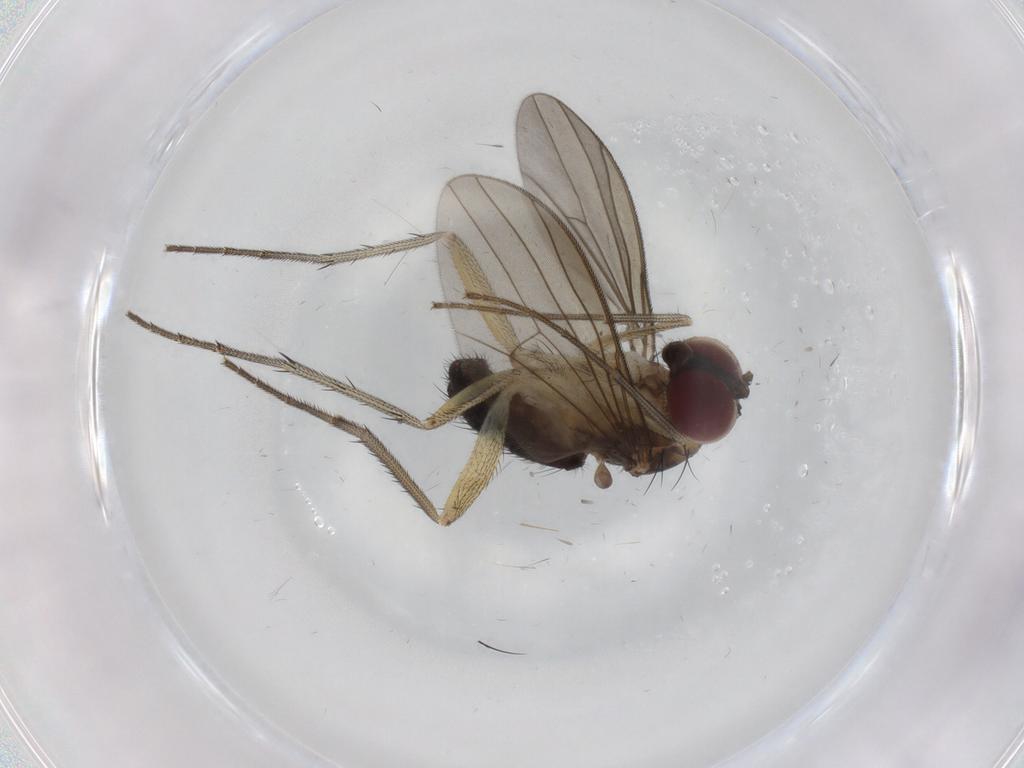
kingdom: Animalia
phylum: Arthropoda
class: Insecta
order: Diptera
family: Dolichopodidae
